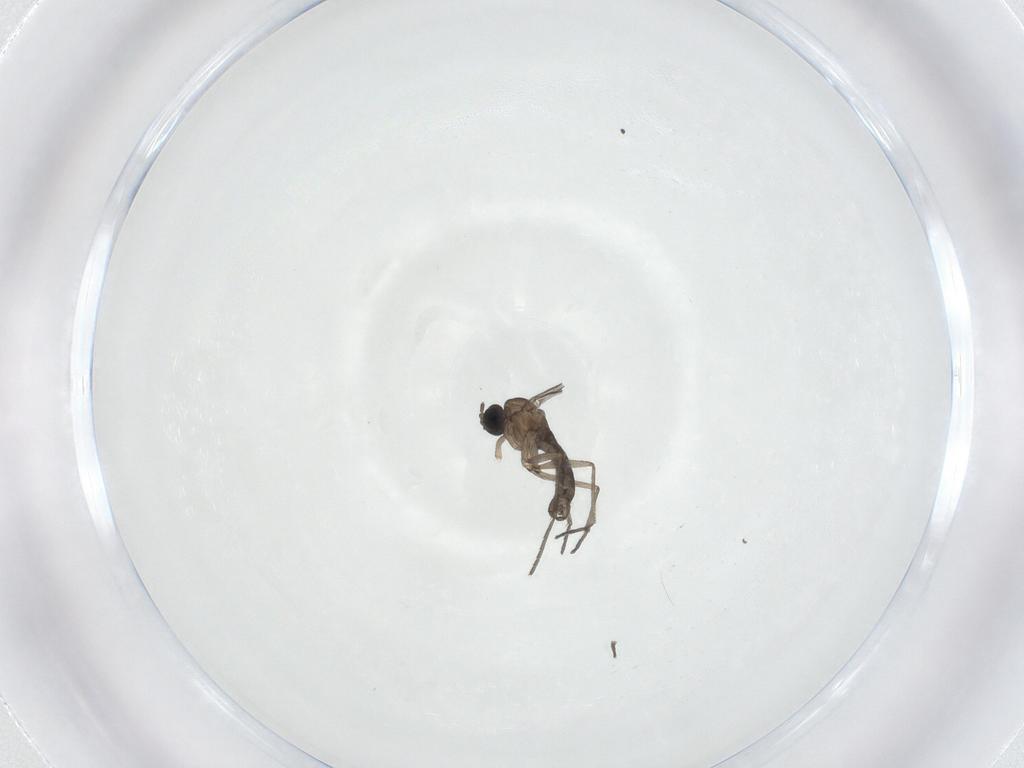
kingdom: Animalia
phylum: Arthropoda
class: Insecta
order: Diptera
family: Sciaridae
